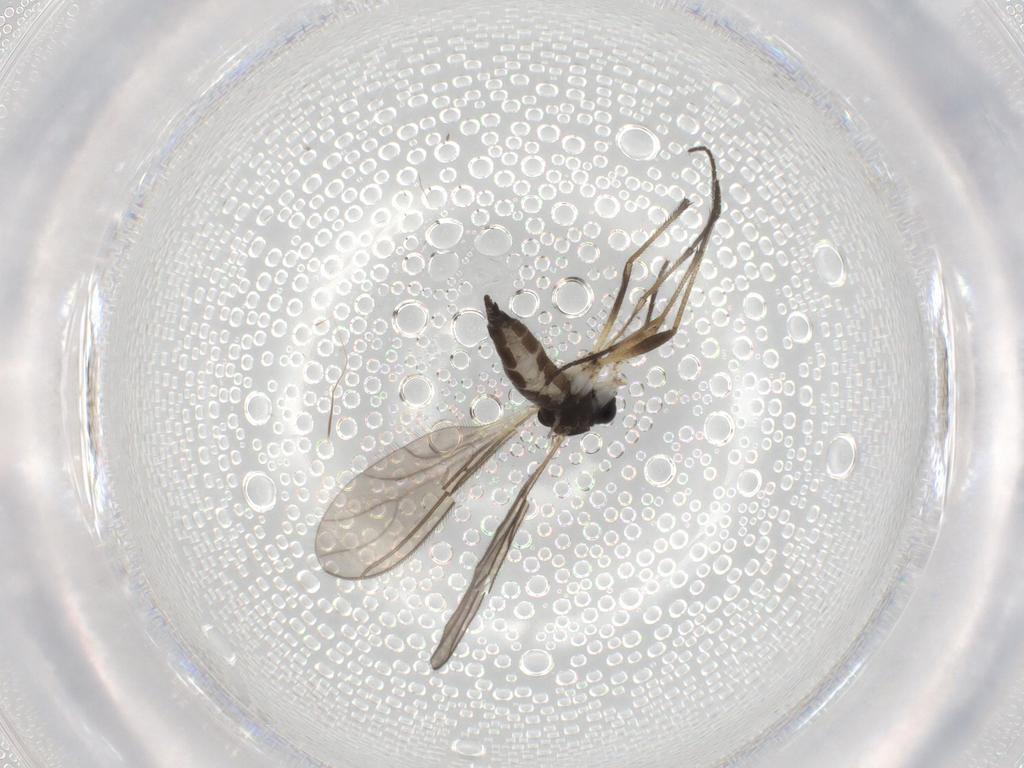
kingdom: Animalia
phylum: Arthropoda
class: Insecta
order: Diptera
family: Sciaridae
